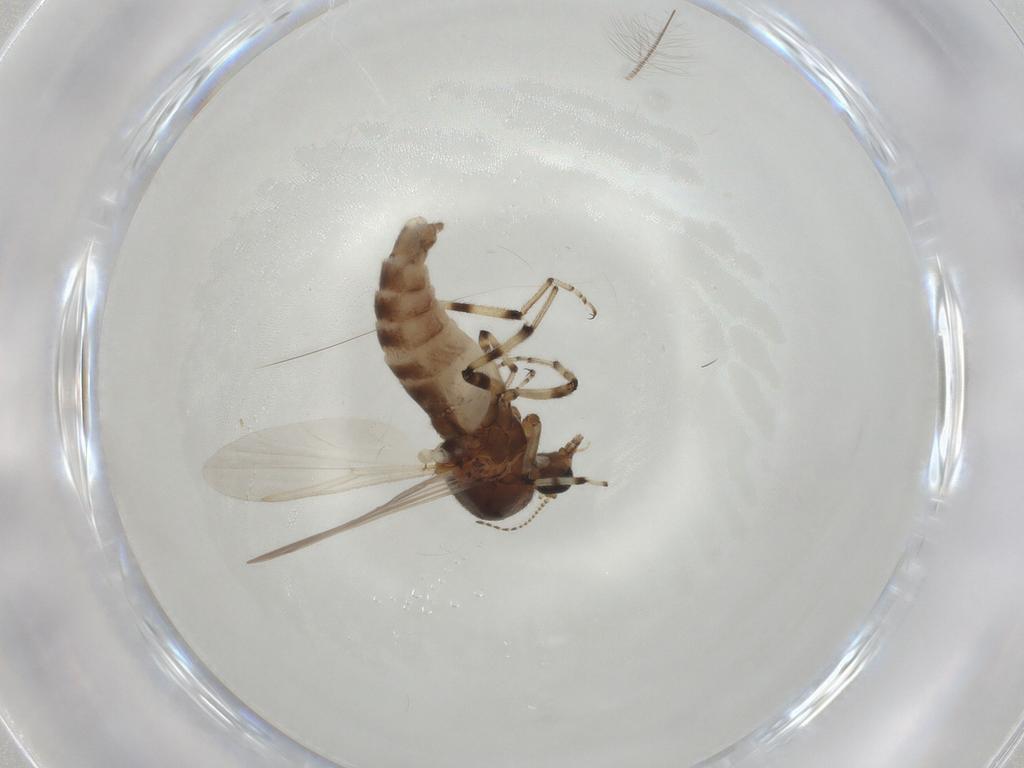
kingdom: Animalia
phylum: Arthropoda
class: Insecta
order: Diptera
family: Ceratopogonidae
